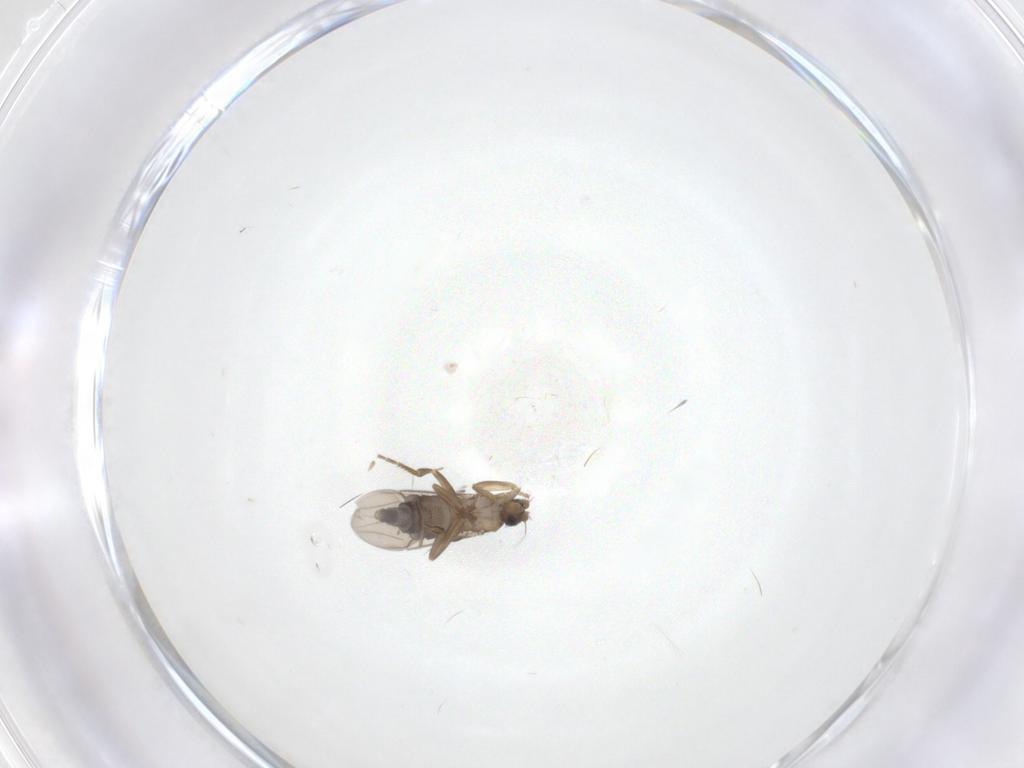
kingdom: Animalia
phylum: Arthropoda
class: Insecta
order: Diptera
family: Phoridae
